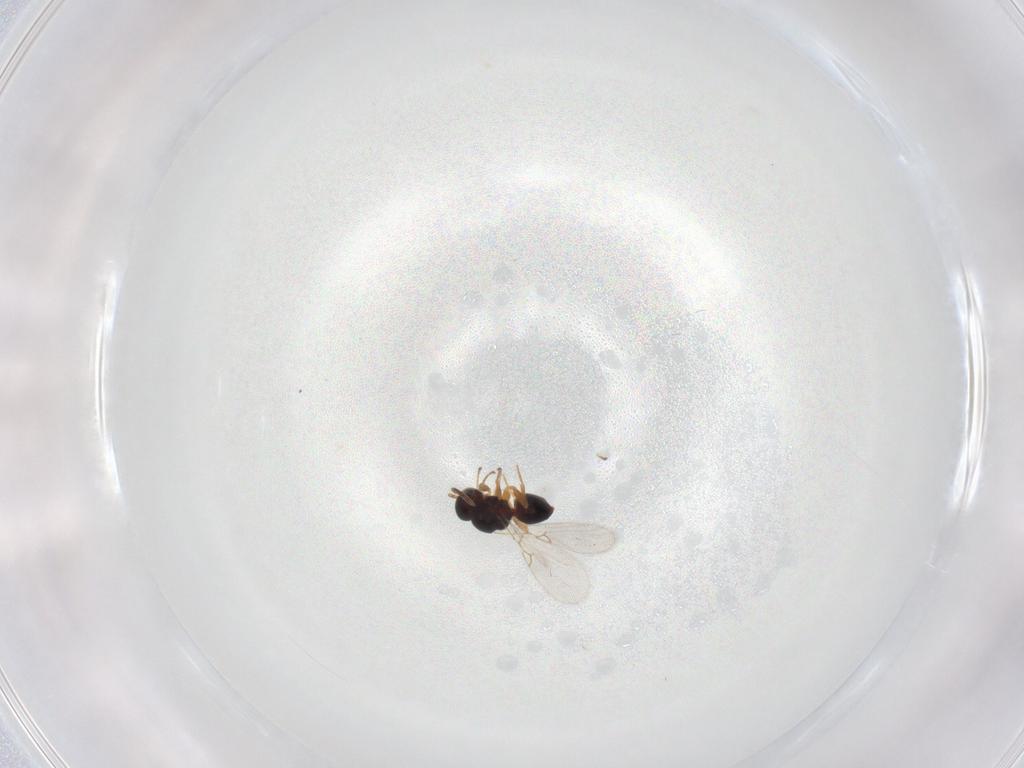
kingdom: Animalia
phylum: Arthropoda
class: Insecta
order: Hymenoptera
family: Figitidae
